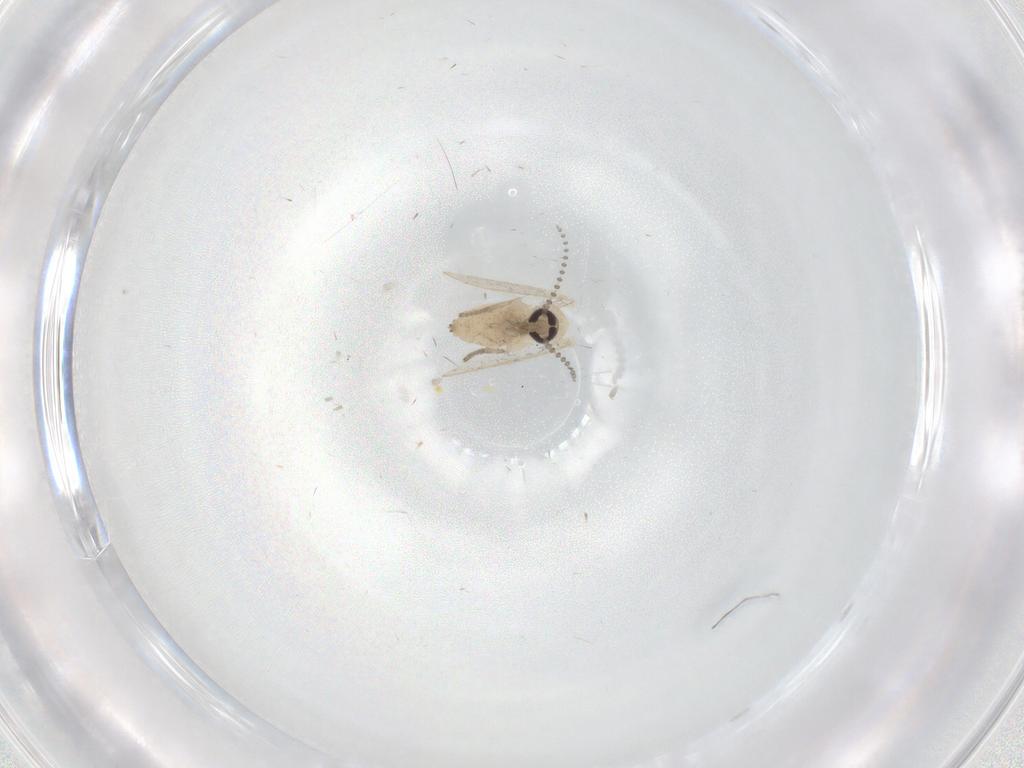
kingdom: Animalia
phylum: Arthropoda
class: Insecta
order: Diptera
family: Psychodidae
